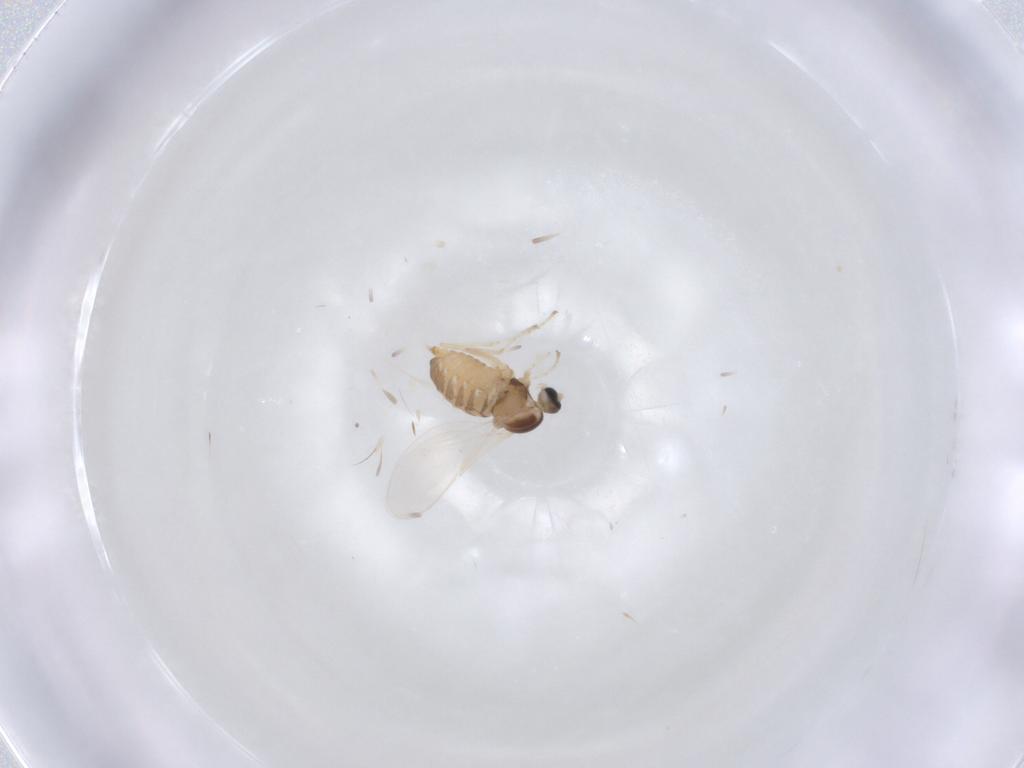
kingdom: Animalia
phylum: Arthropoda
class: Insecta
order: Diptera
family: Cecidomyiidae
